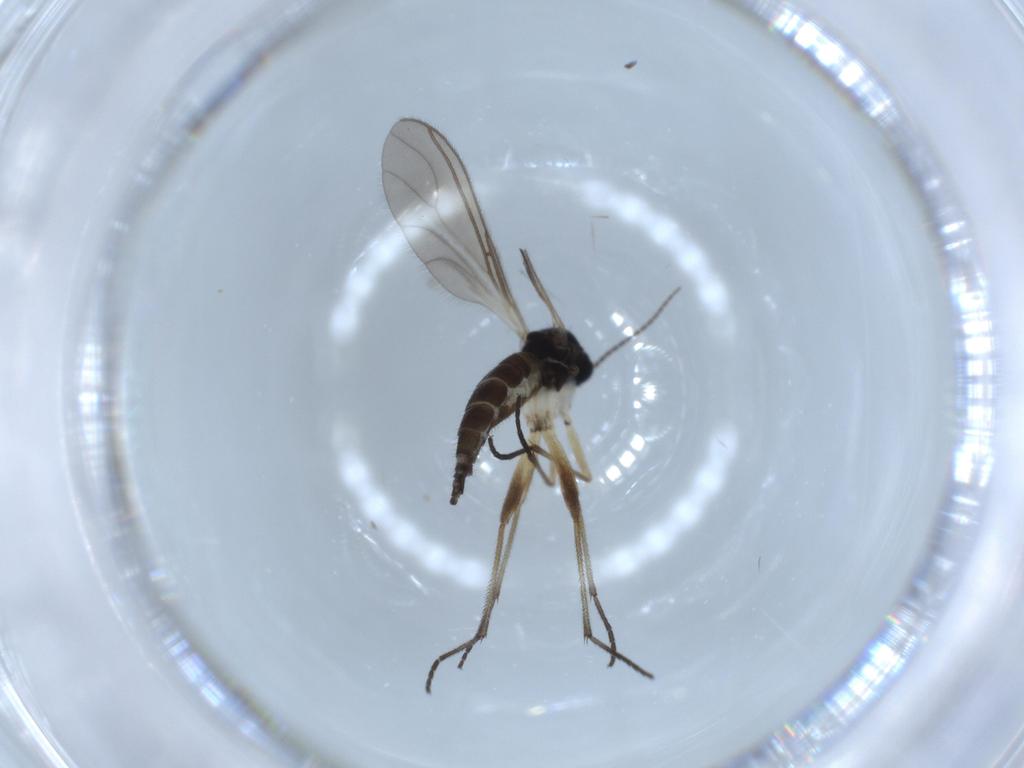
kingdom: Animalia
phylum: Arthropoda
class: Insecta
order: Diptera
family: Sciaridae
